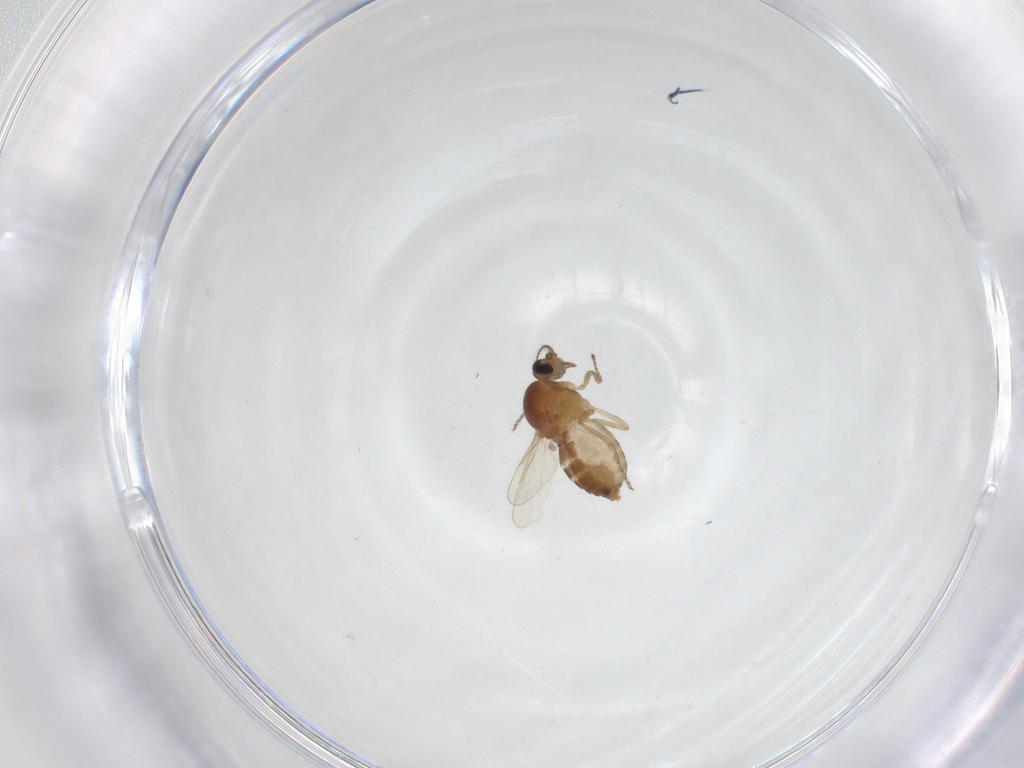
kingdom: Animalia
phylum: Arthropoda
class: Insecta
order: Diptera
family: Ceratopogonidae
